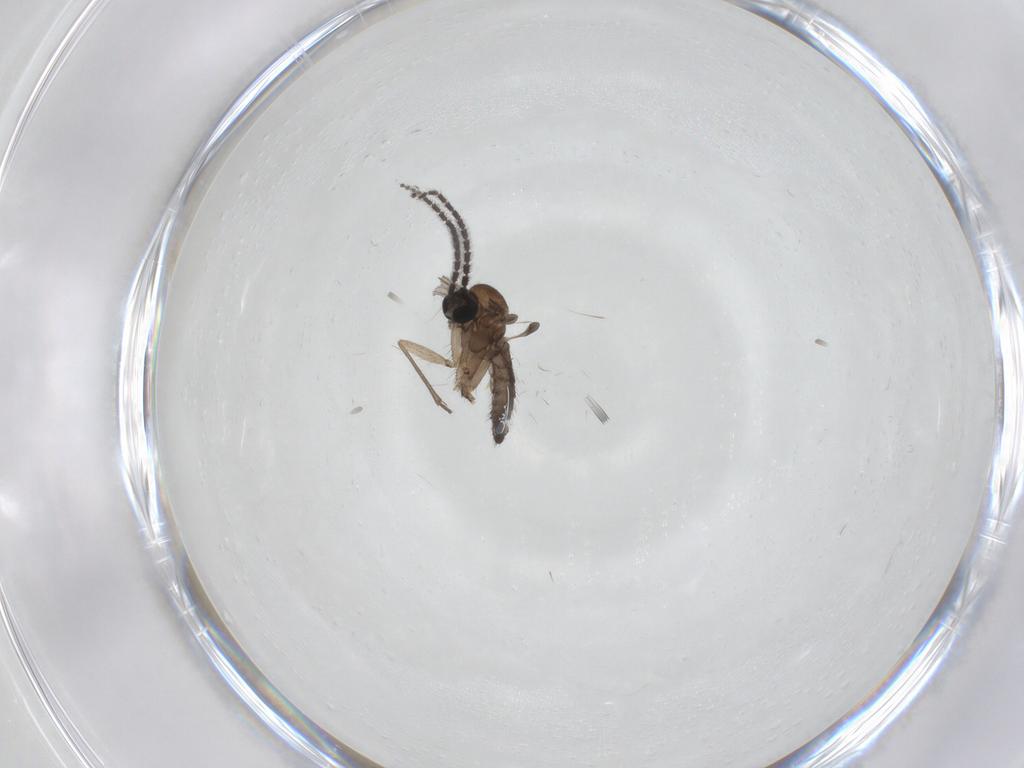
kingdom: Animalia
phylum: Arthropoda
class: Insecta
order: Diptera
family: Sciaridae
